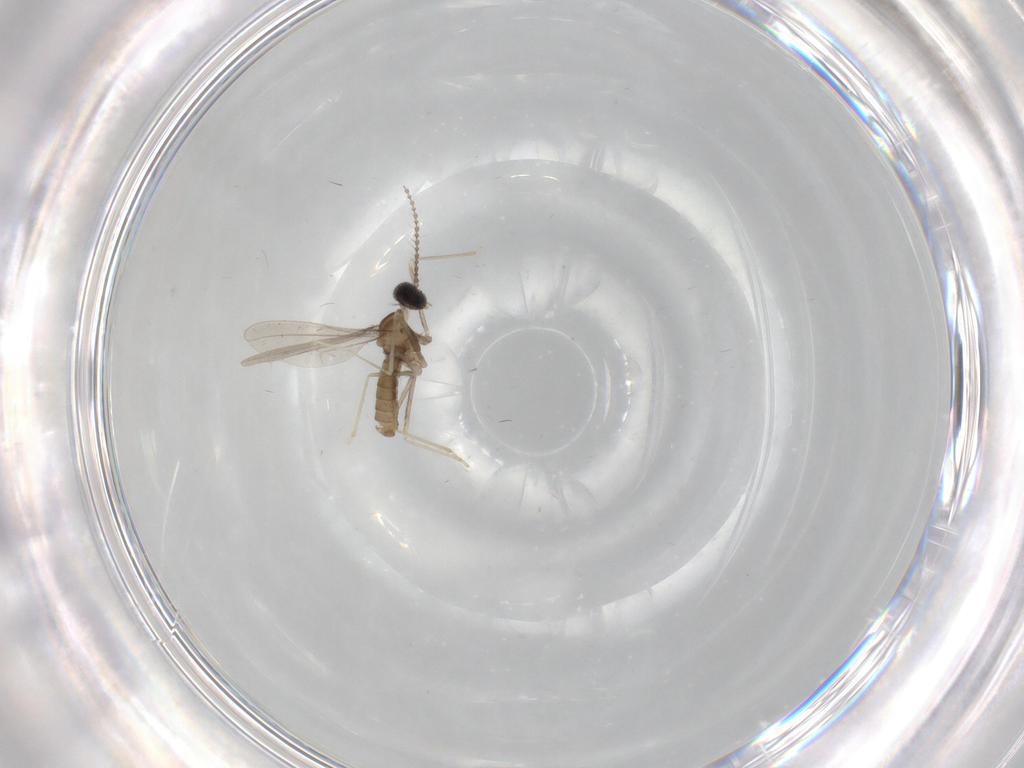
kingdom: Animalia
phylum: Arthropoda
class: Insecta
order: Diptera
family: Cecidomyiidae
